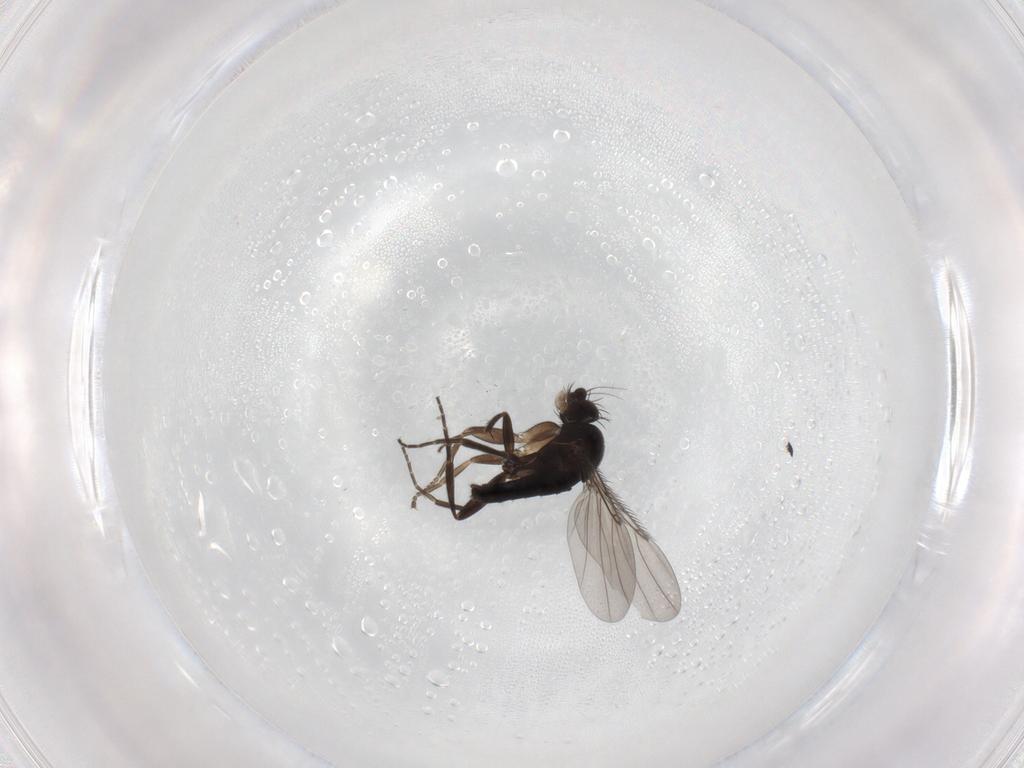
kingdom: Animalia
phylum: Arthropoda
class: Insecta
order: Diptera
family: Phoridae
